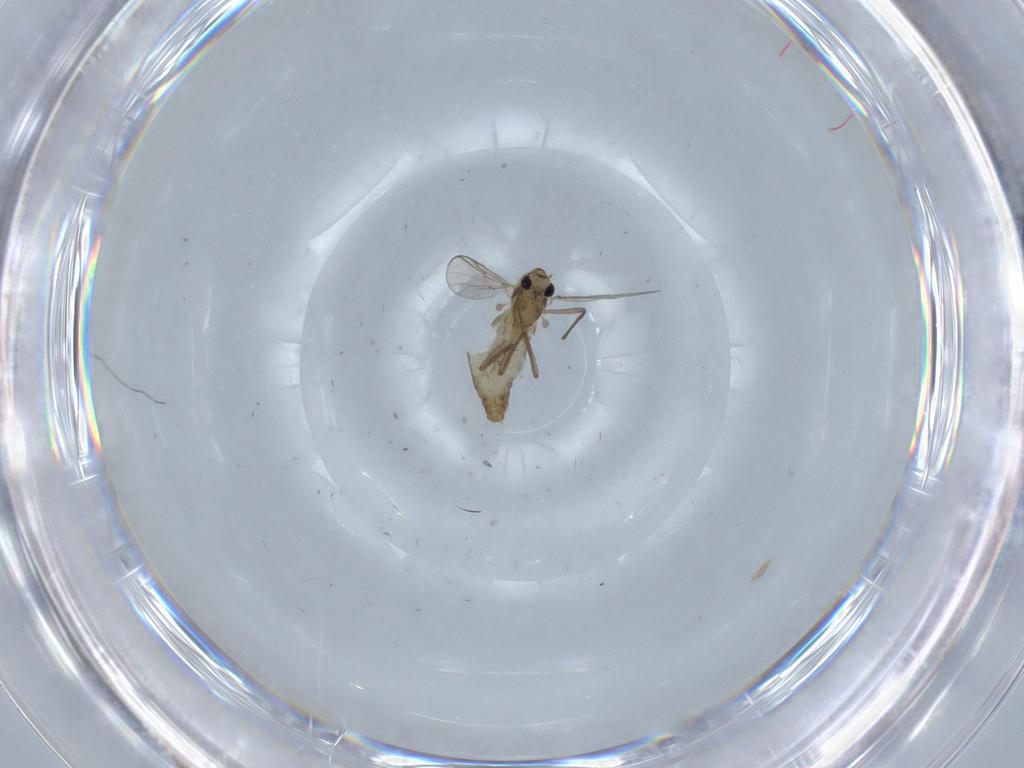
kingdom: Animalia
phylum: Arthropoda
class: Insecta
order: Diptera
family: Chironomidae
